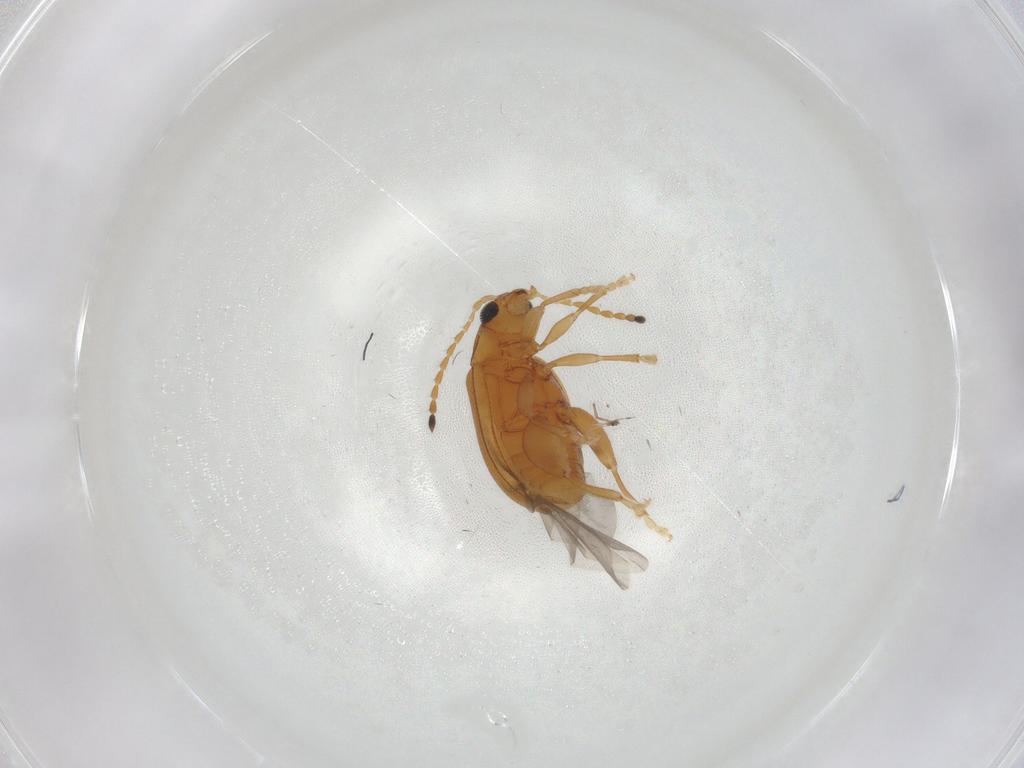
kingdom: Animalia
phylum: Arthropoda
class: Insecta
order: Coleoptera
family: Chrysomelidae
